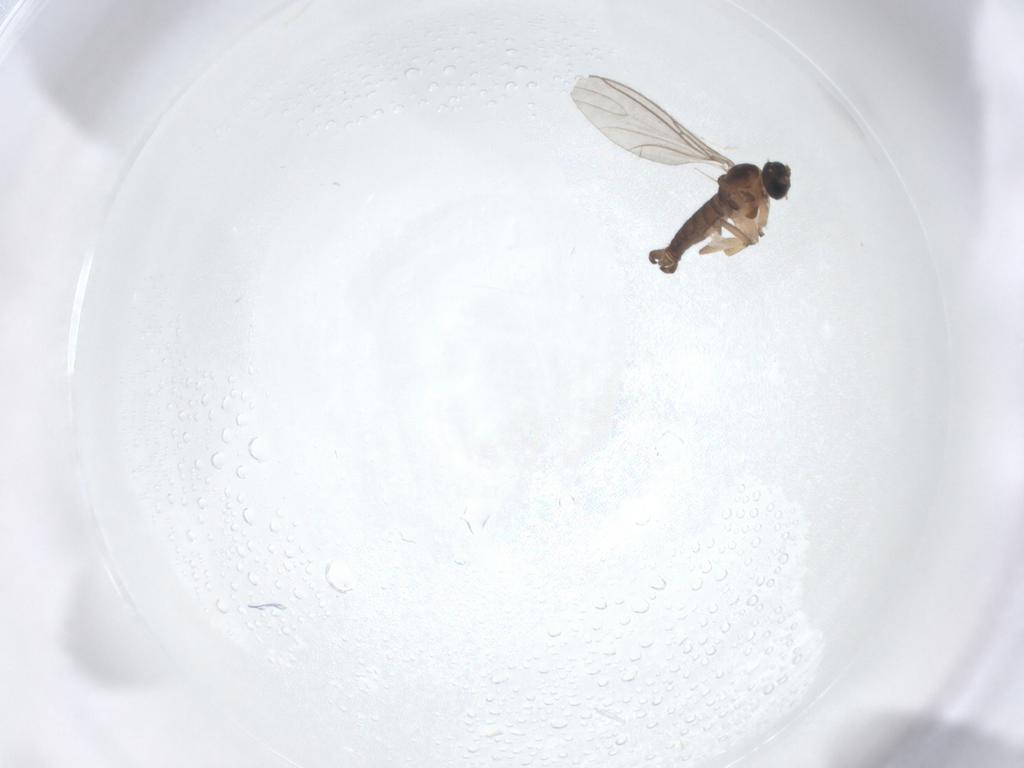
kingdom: Animalia
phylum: Arthropoda
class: Insecta
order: Diptera
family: Sciaridae
